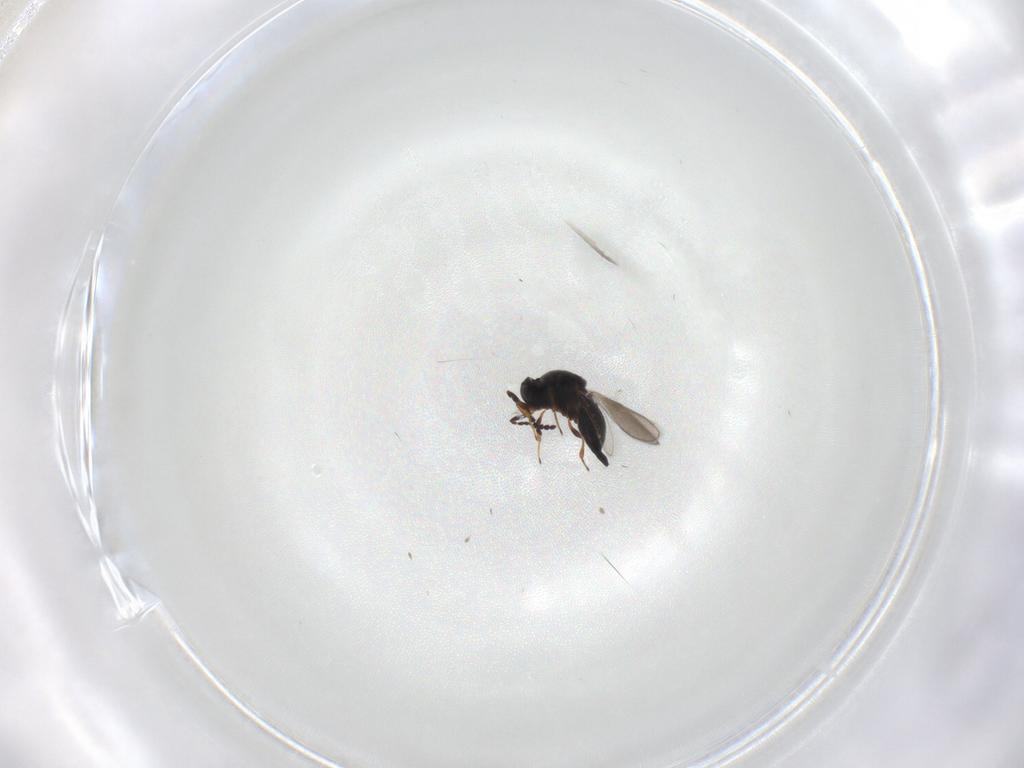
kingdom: Animalia
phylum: Arthropoda
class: Insecta
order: Hymenoptera
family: Platygastridae
